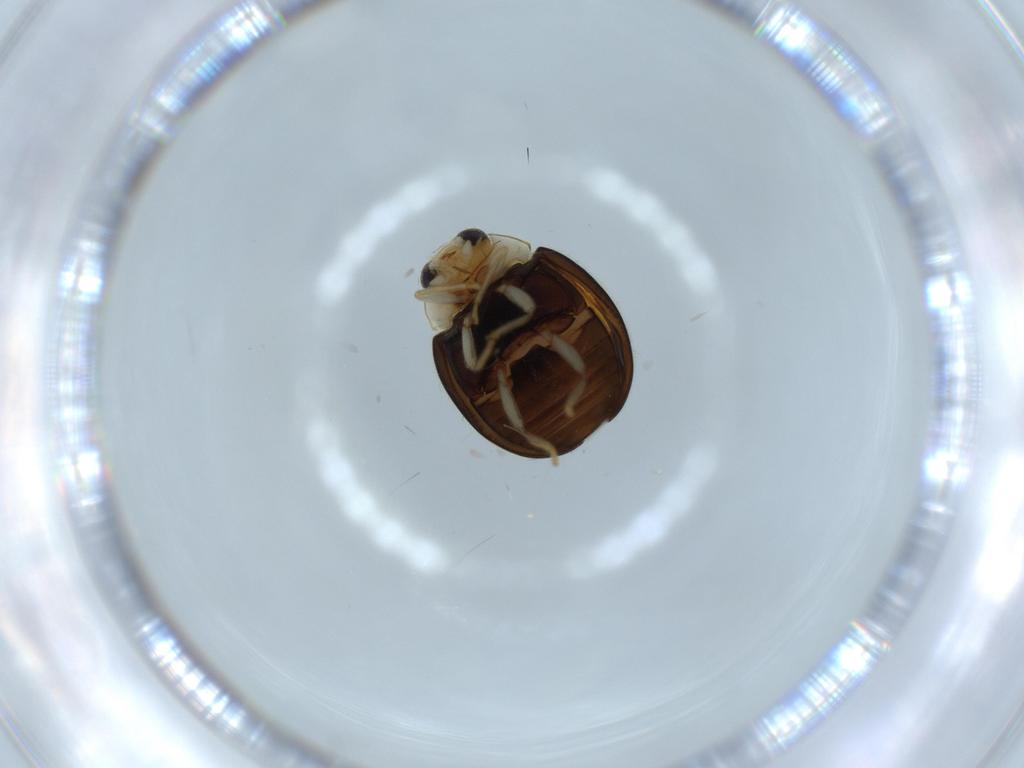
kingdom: Animalia
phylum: Arthropoda
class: Insecta
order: Coleoptera
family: Coccinellidae
